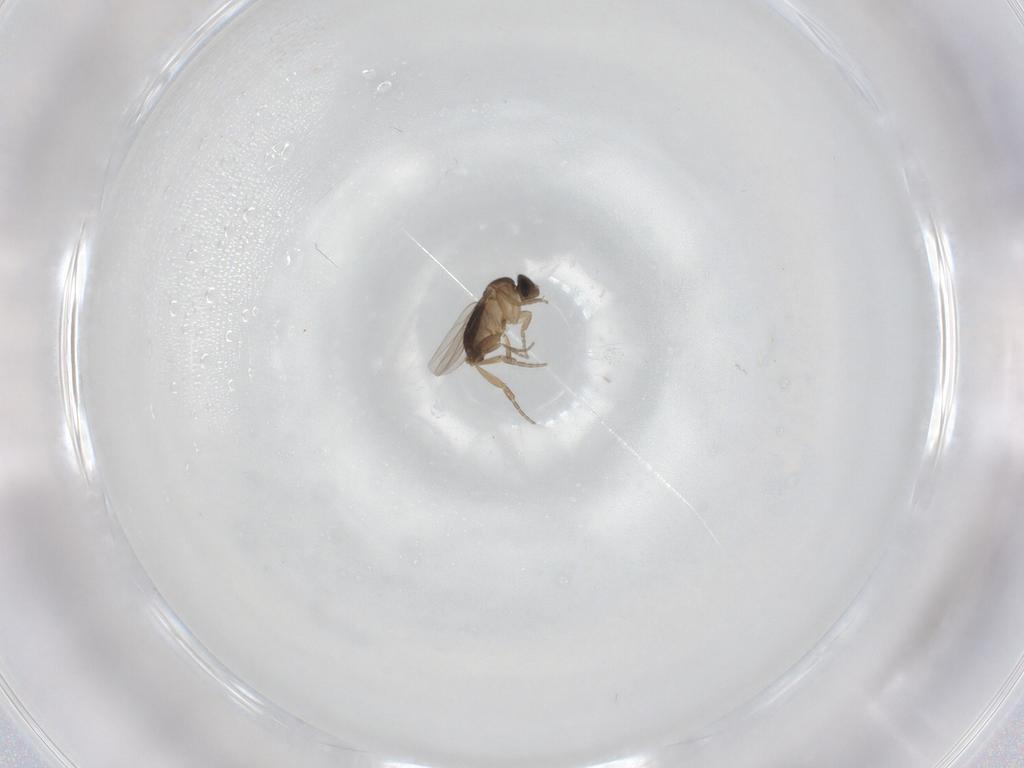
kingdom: Animalia
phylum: Arthropoda
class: Insecta
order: Diptera
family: Phoridae
